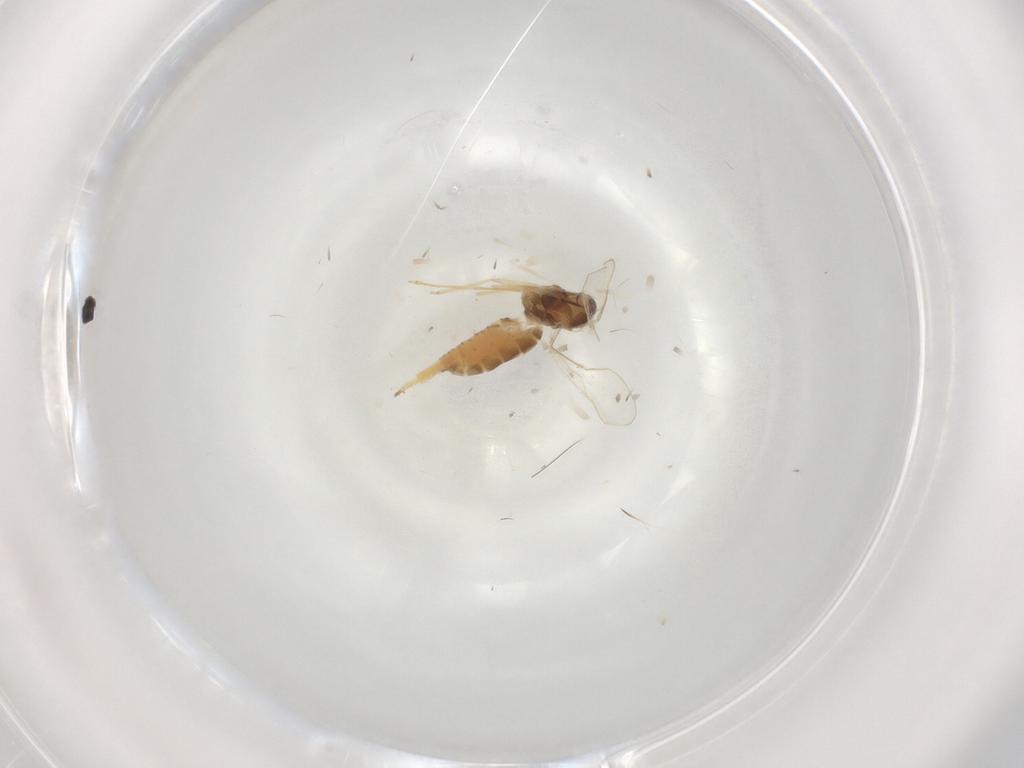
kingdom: Animalia
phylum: Arthropoda
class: Insecta
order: Diptera
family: Cecidomyiidae
